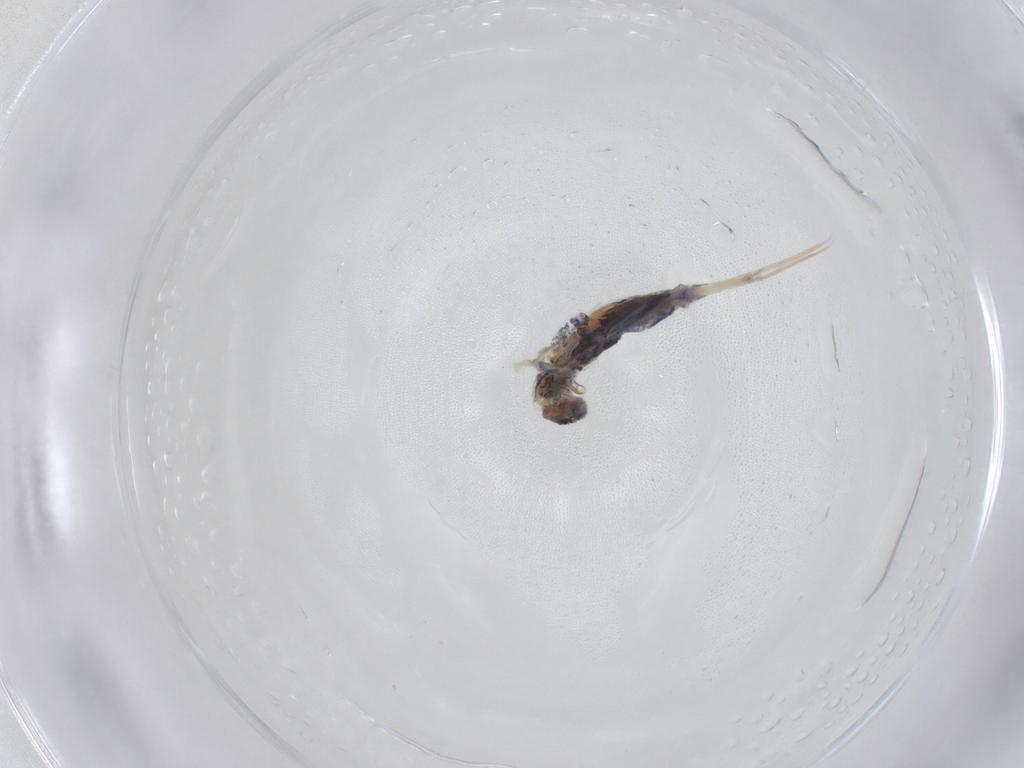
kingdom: Animalia
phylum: Arthropoda
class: Collembola
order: Entomobryomorpha
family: Entomobryidae
